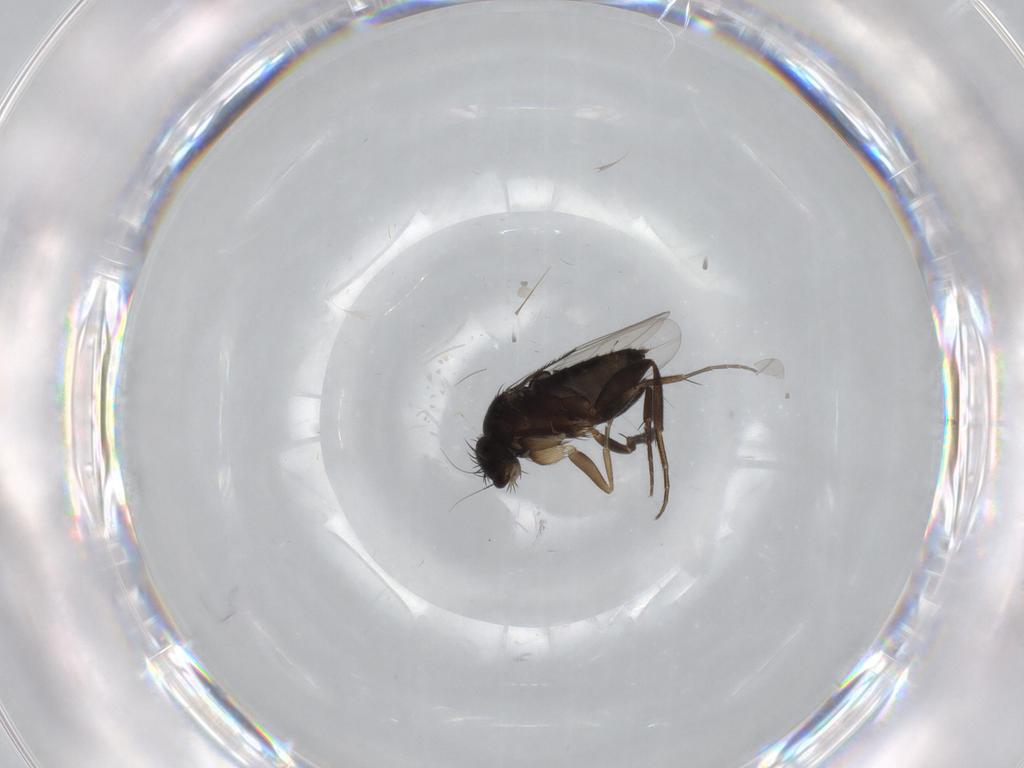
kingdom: Animalia
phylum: Arthropoda
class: Insecta
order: Diptera
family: Phoridae
